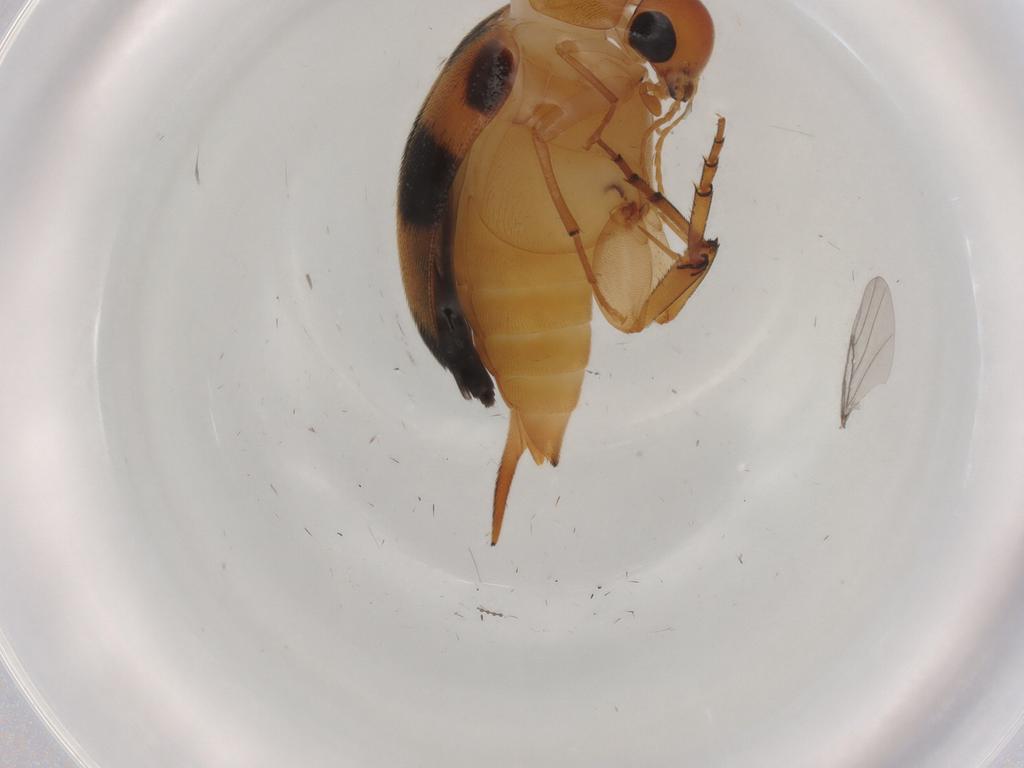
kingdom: Animalia
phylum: Arthropoda
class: Insecta
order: Coleoptera
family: Mordellidae
